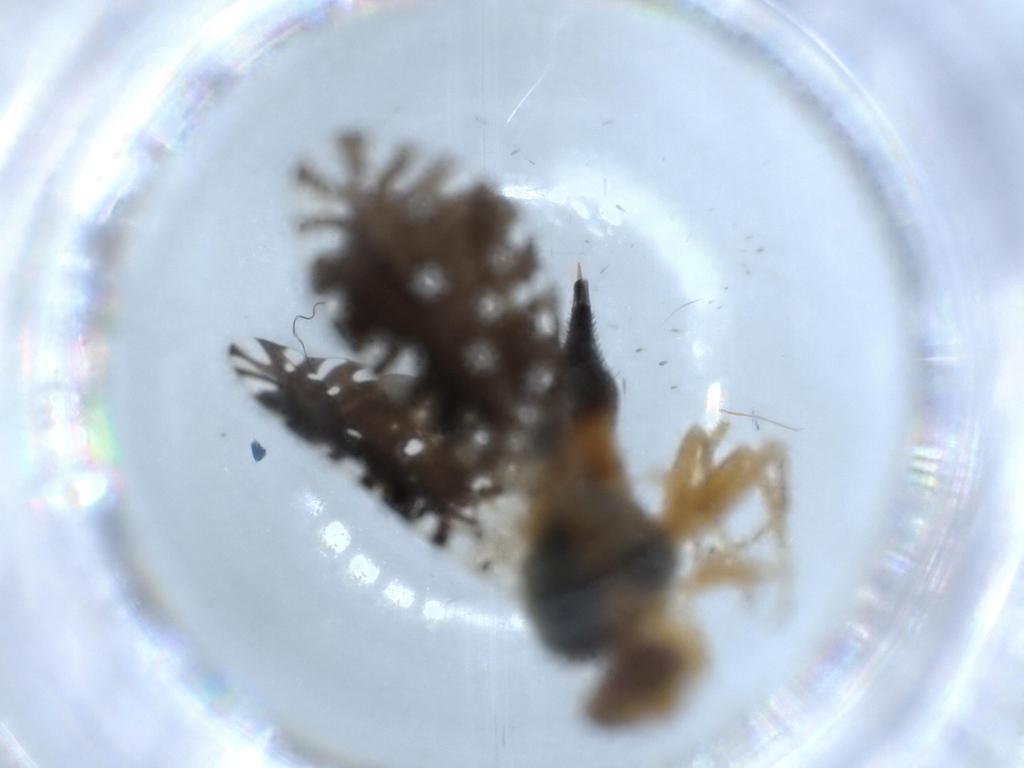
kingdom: Animalia
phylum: Arthropoda
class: Insecta
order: Diptera
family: Tephritidae
